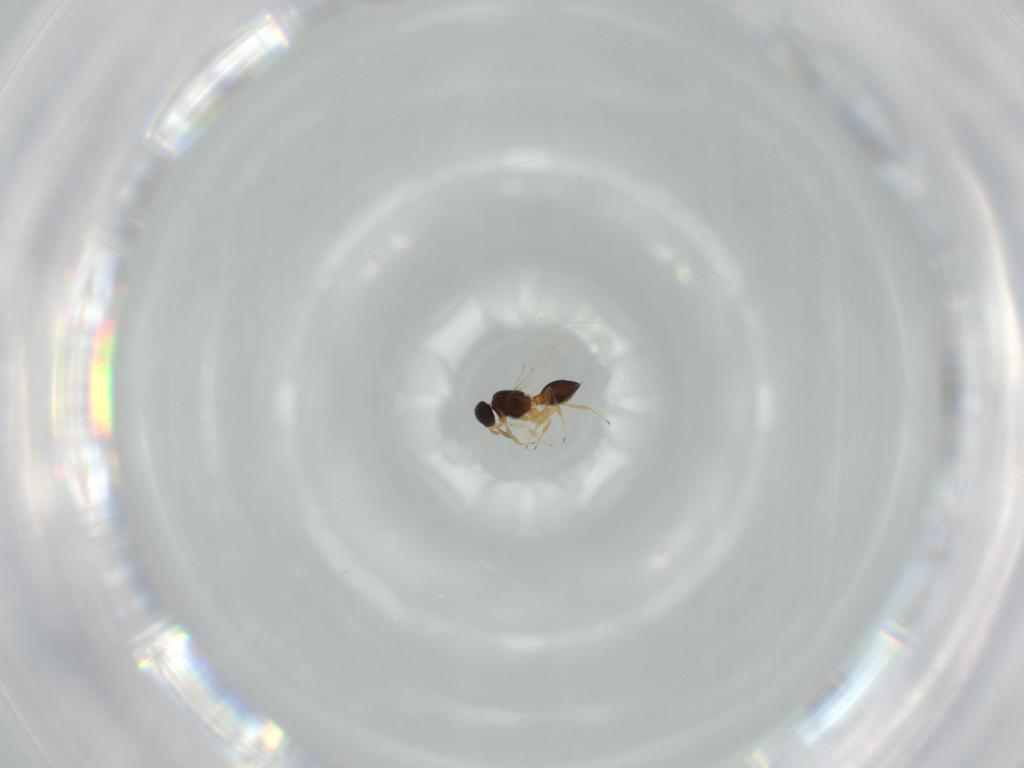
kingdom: Animalia
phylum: Arthropoda
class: Insecta
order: Hymenoptera
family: Platygastridae
